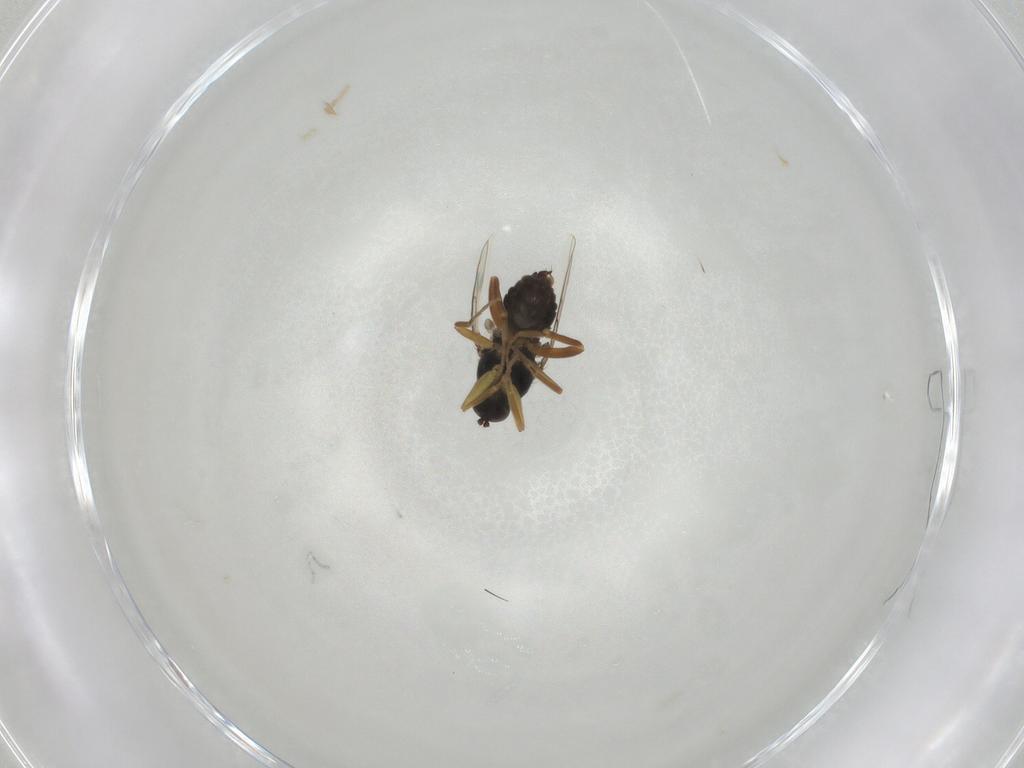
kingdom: Animalia
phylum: Arthropoda
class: Insecta
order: Diptera
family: Hybotidae
